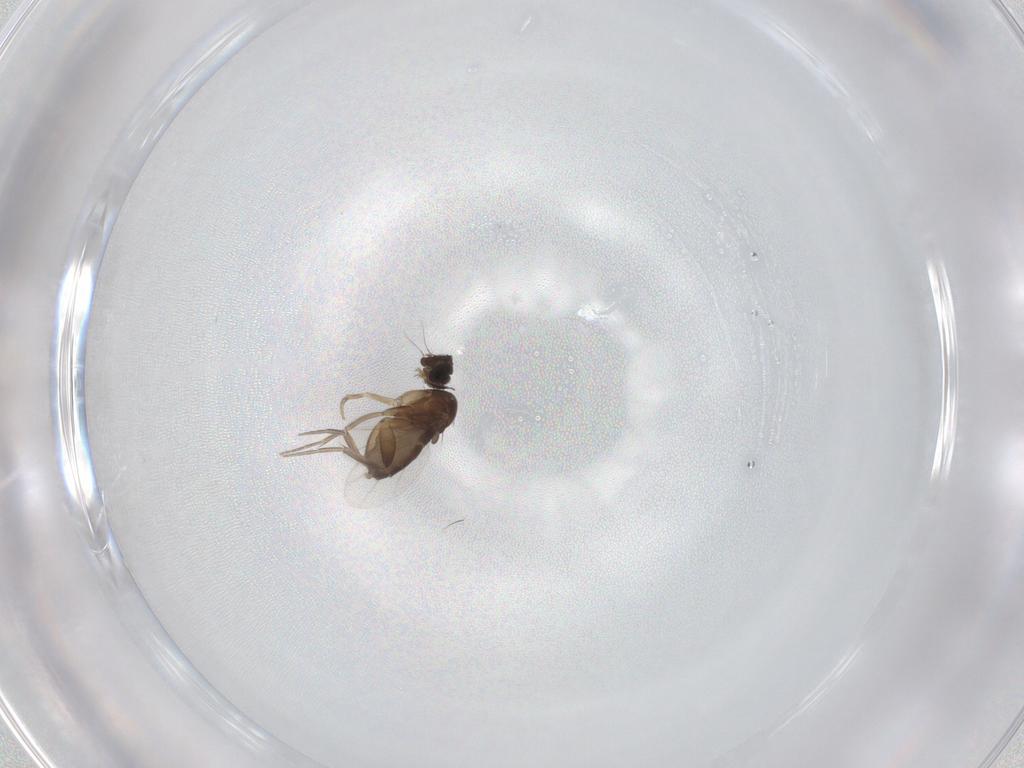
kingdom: Animalia
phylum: Arthropoda
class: Insecta
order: Diptera
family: Phoridae
